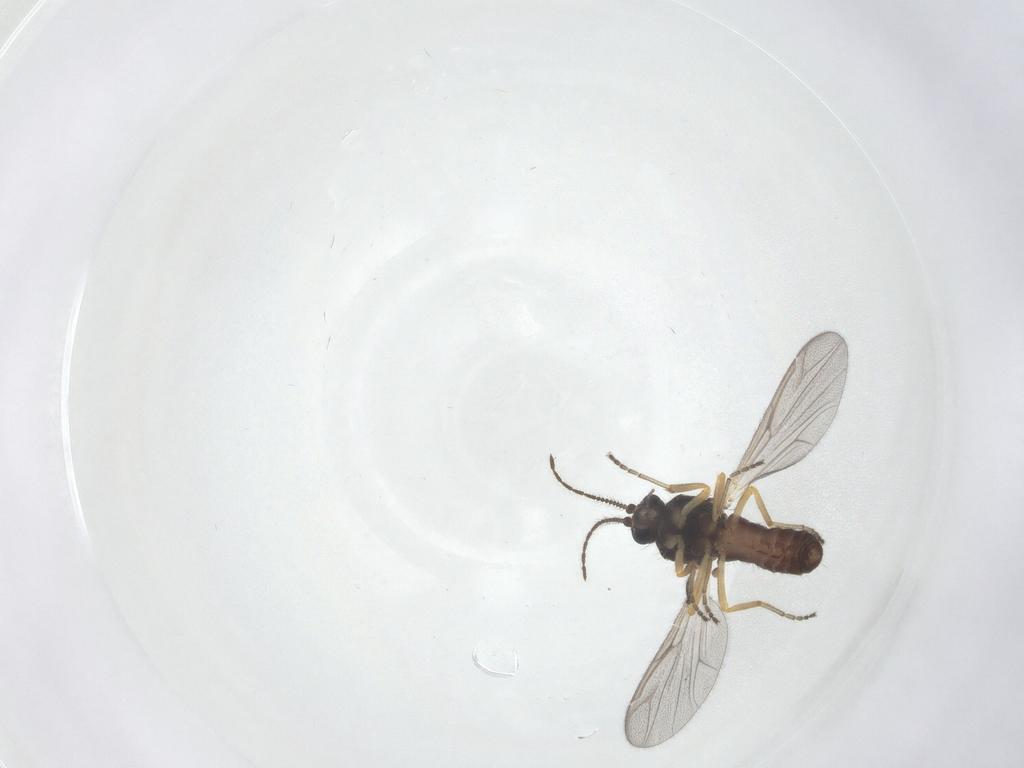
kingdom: Animalia
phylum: Arthropoda
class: Insecta
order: Diptera
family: Ceratopogonidae
